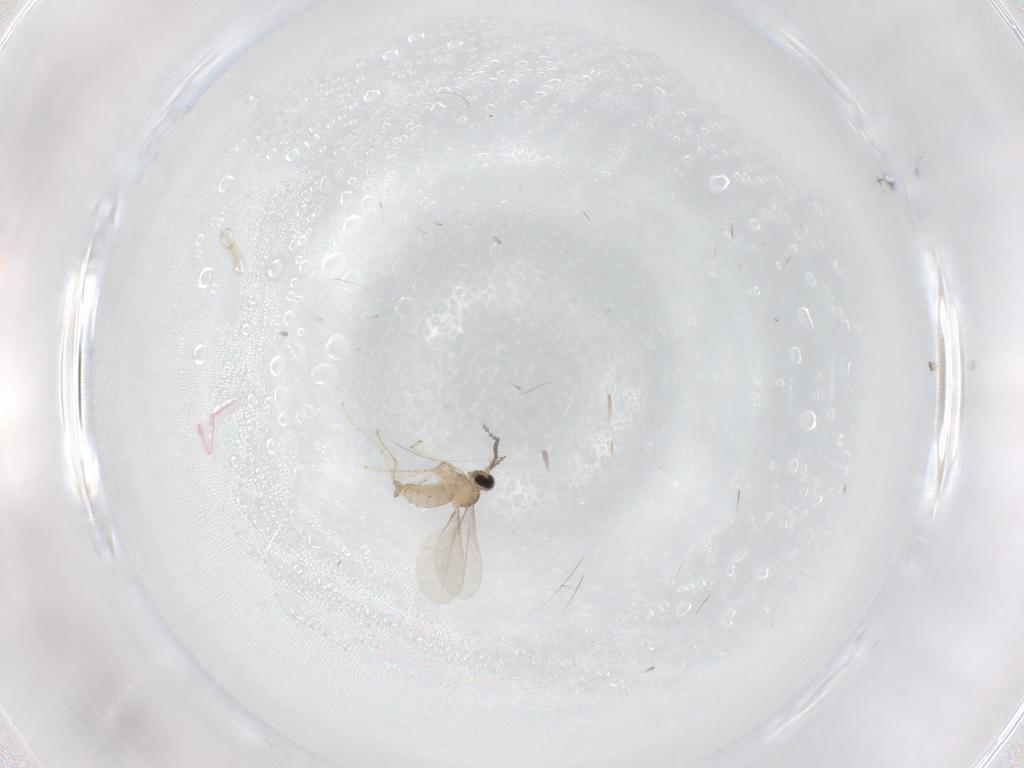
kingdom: Animalia
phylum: Arthropoda
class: Insecta
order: Diptera
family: Cecidomyiidae
